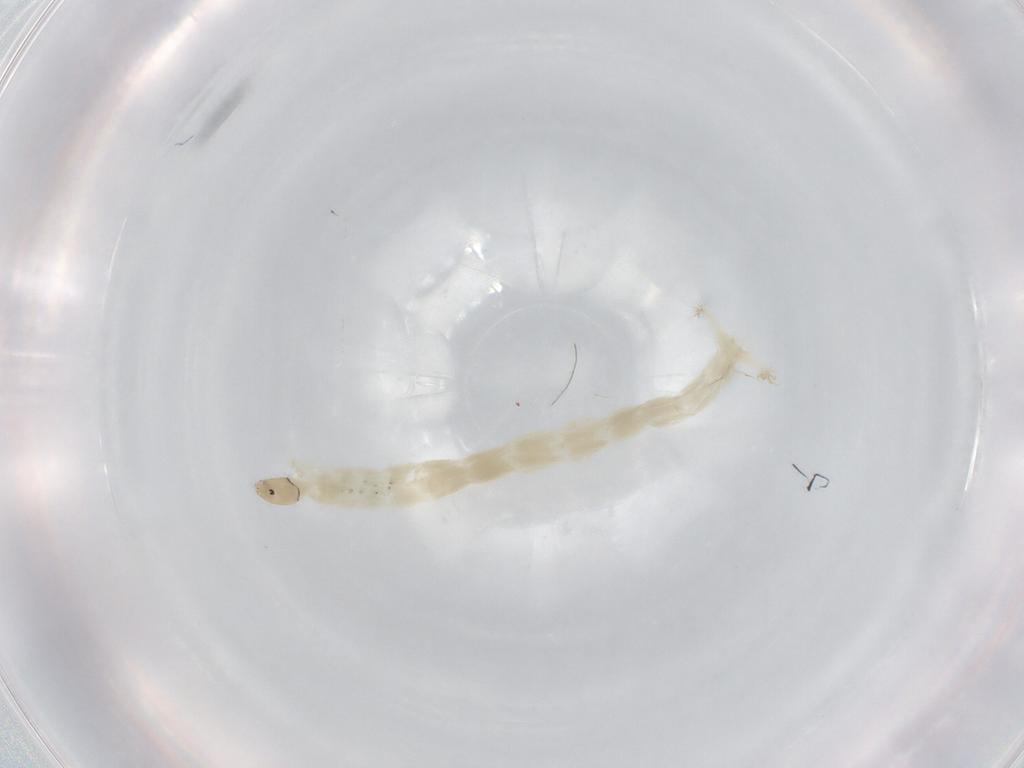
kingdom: Animalia
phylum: Arthropoda
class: Insecta
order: Diptera
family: Chironomidae
